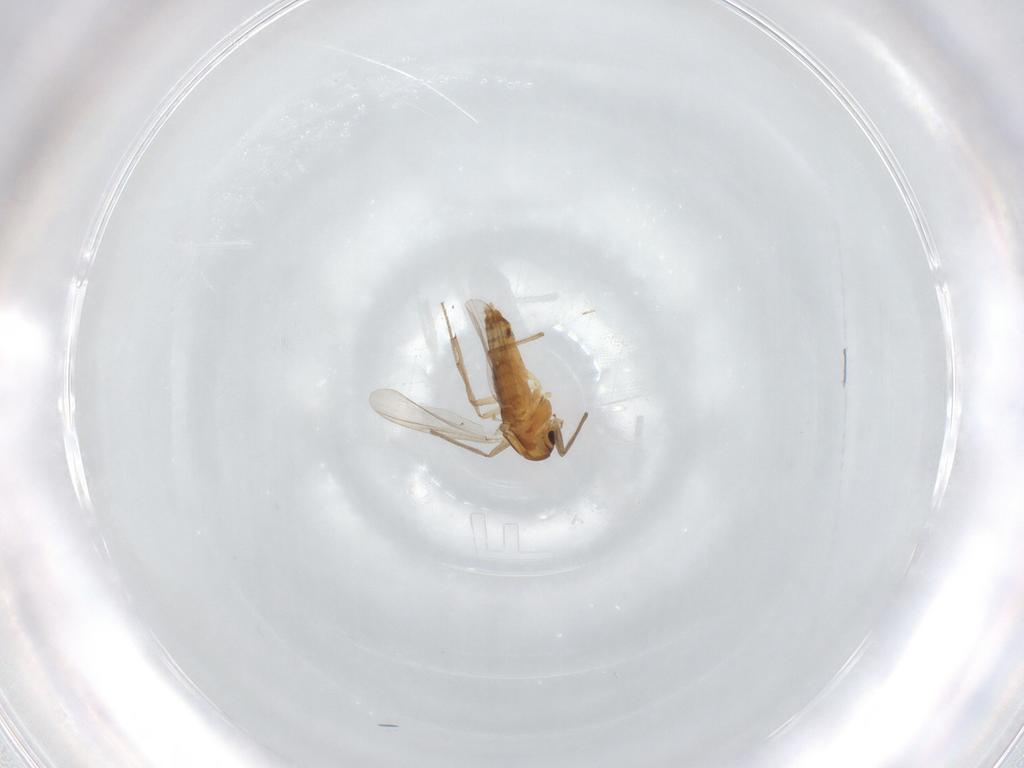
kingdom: Animalia
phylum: Arthropoda
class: Insecta
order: Diptera
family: Chironomidae
